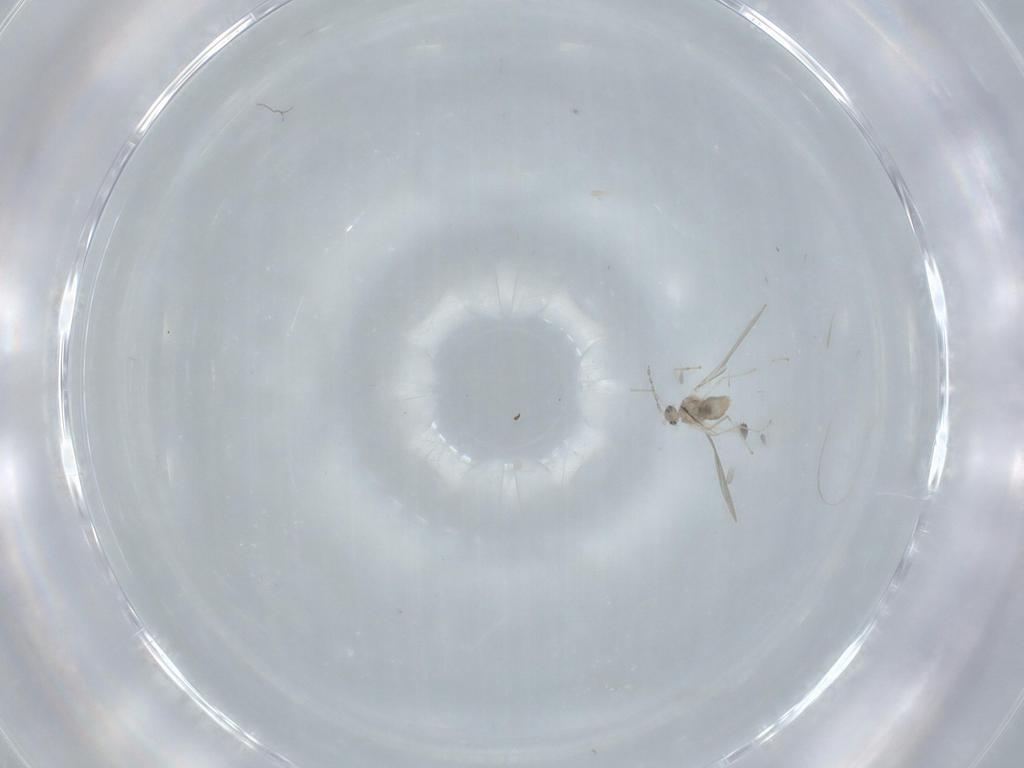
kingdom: Animalia
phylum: Arthropoda
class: Insecta
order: Diptera
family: Cecidomyiidae
